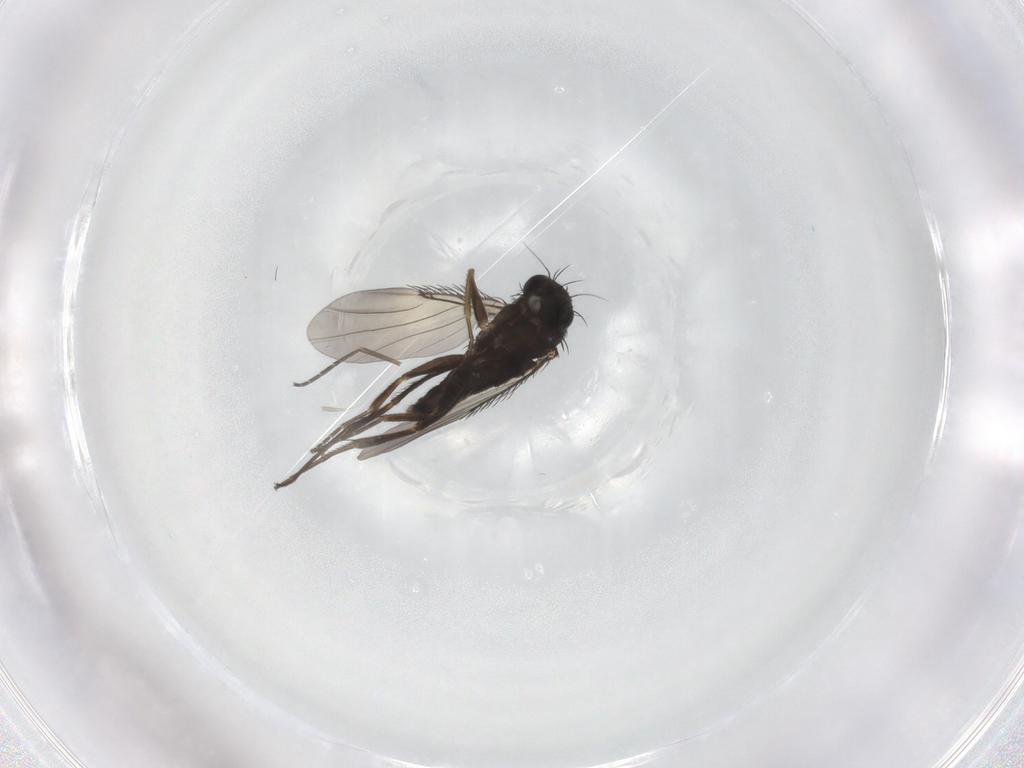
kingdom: Animalia
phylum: Arthropoda
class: Insecta
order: Diptera
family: Phoridae
